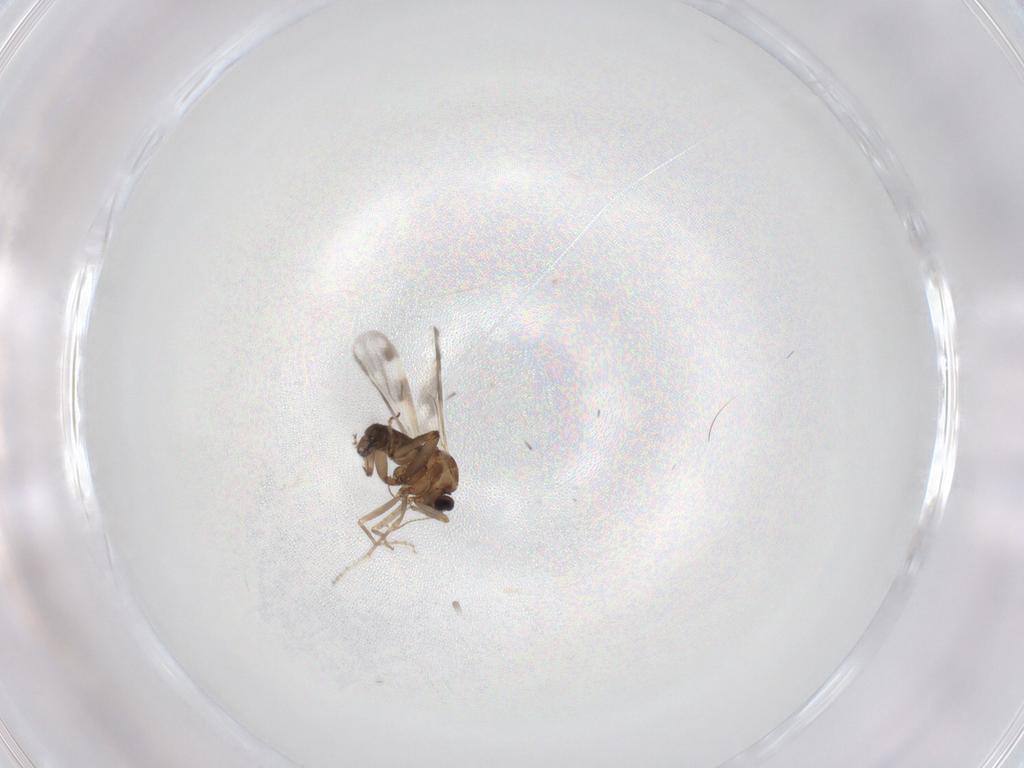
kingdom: Animalia
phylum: Arthropoda
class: Insecta
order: Diptera
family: Ceratopogonidae
